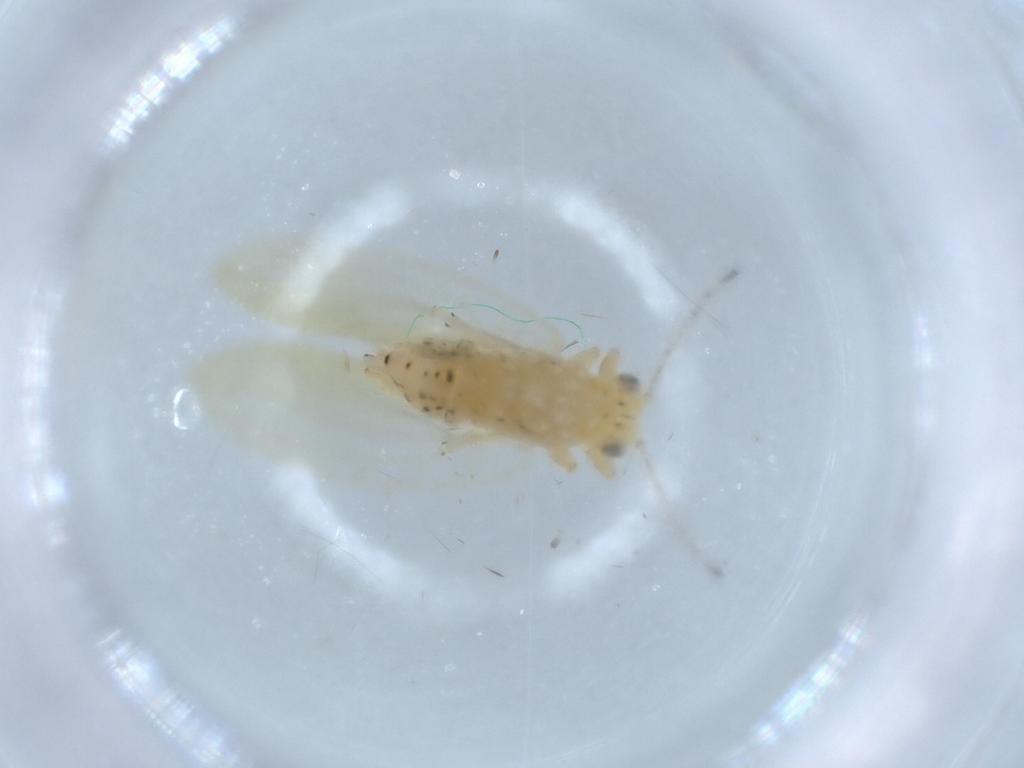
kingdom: Animalia
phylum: Arthropoda
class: Insecta
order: Hemiptera
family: Triozidae
